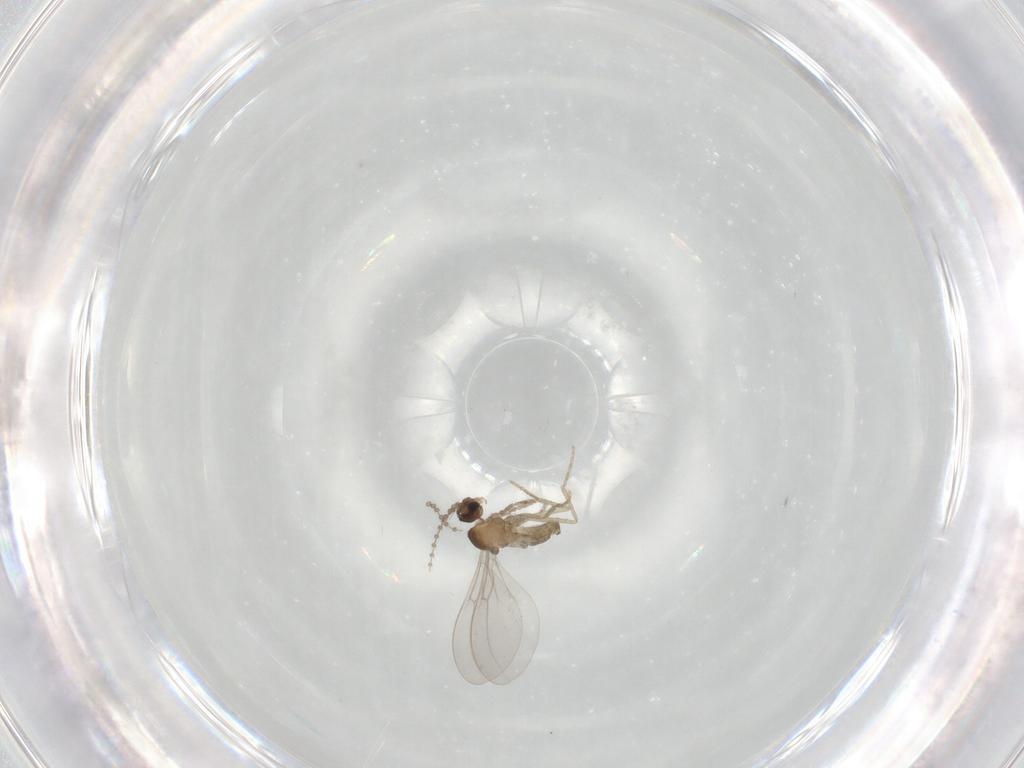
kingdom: Animalia
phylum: Arthropoda
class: Insecta
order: Diptera
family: Cecidomyiidae
